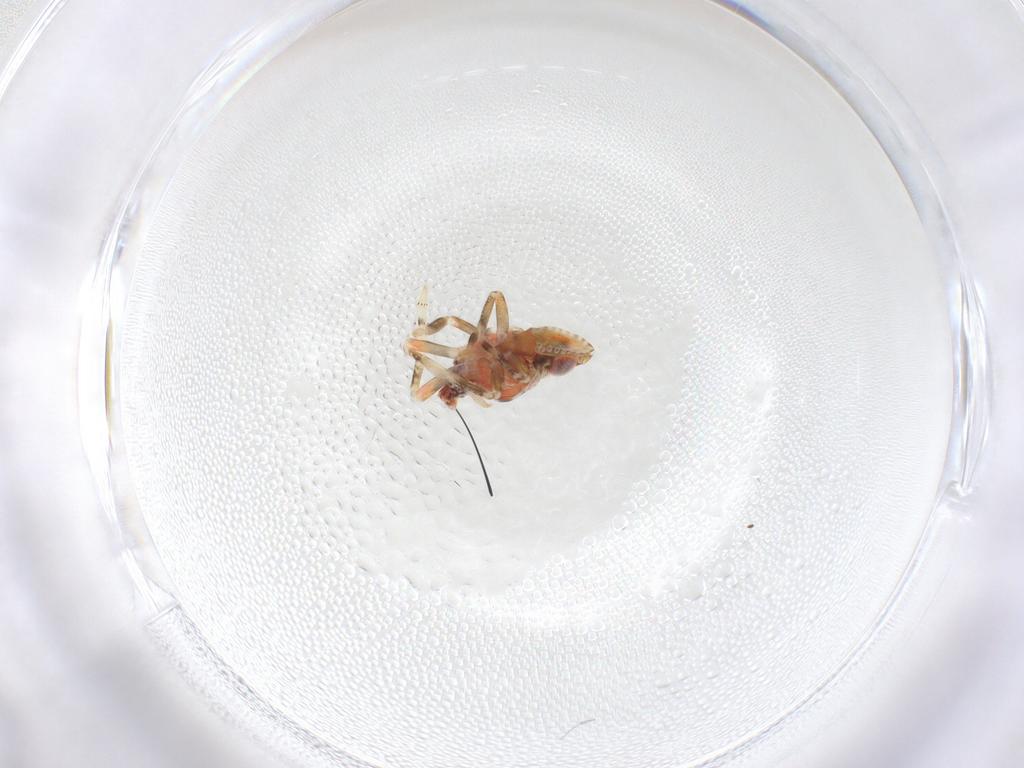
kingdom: Animalia
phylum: Arthropoda
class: Insecta
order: Hemiptera
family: Tropiduchidae
